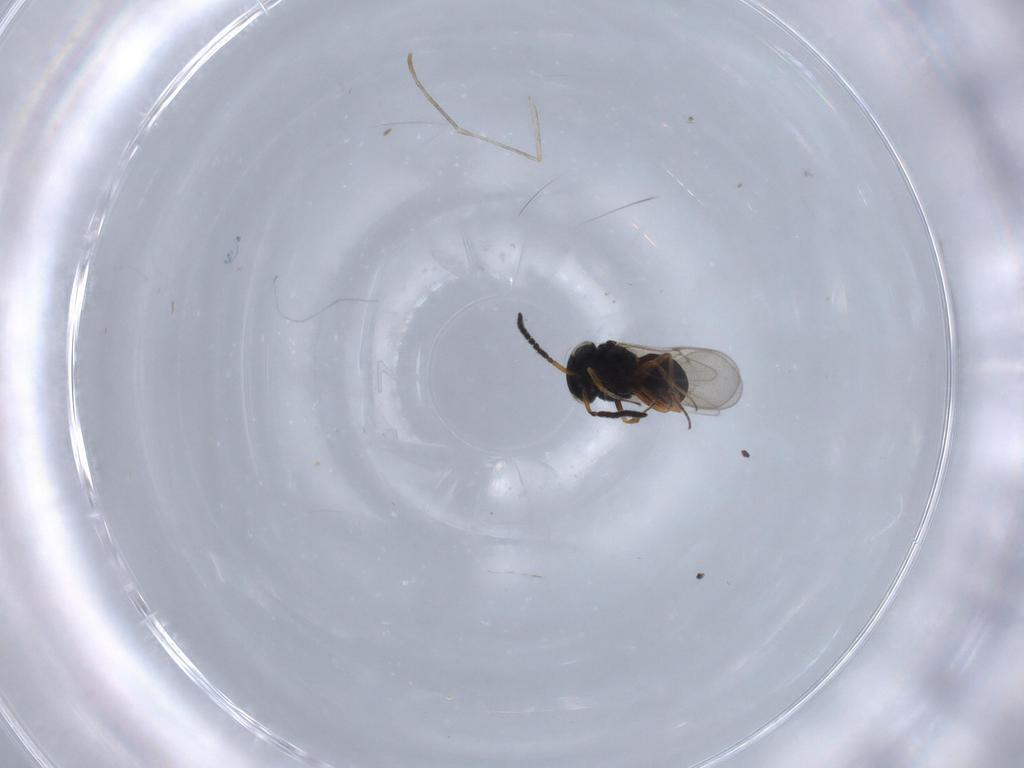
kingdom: Animalia
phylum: Arthropoda
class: Insecta
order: Hymenoptera
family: Scelionidae
